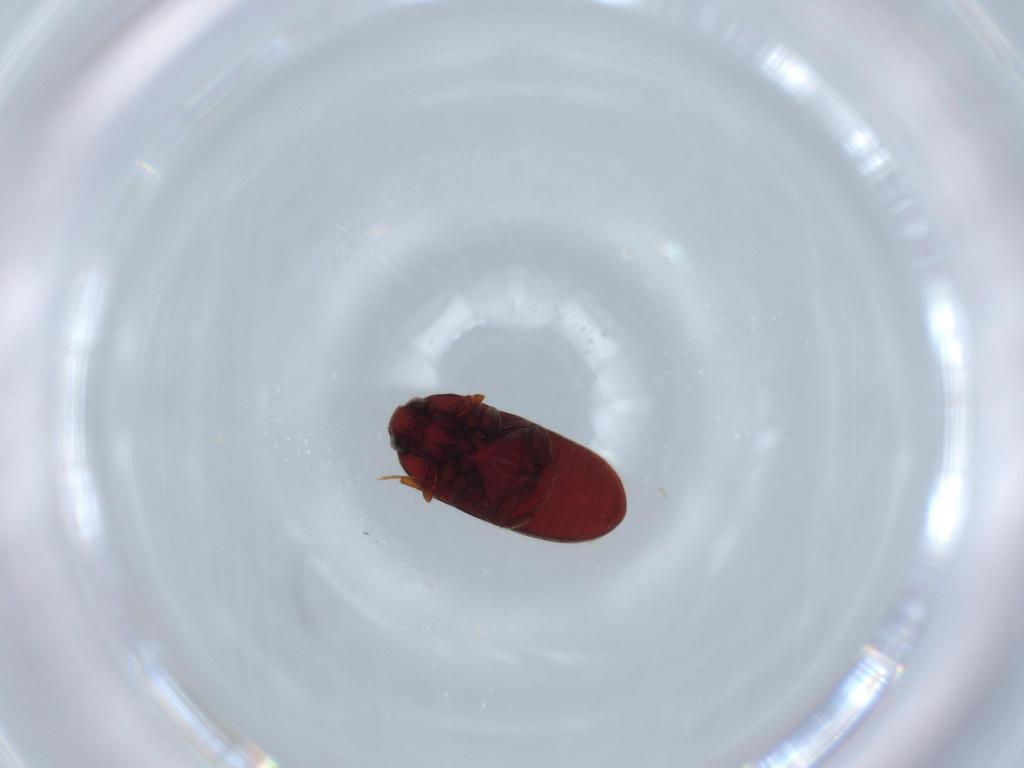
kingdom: Animalia
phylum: Arthropoda
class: Insecta
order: Coleoptera
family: Throscidae
